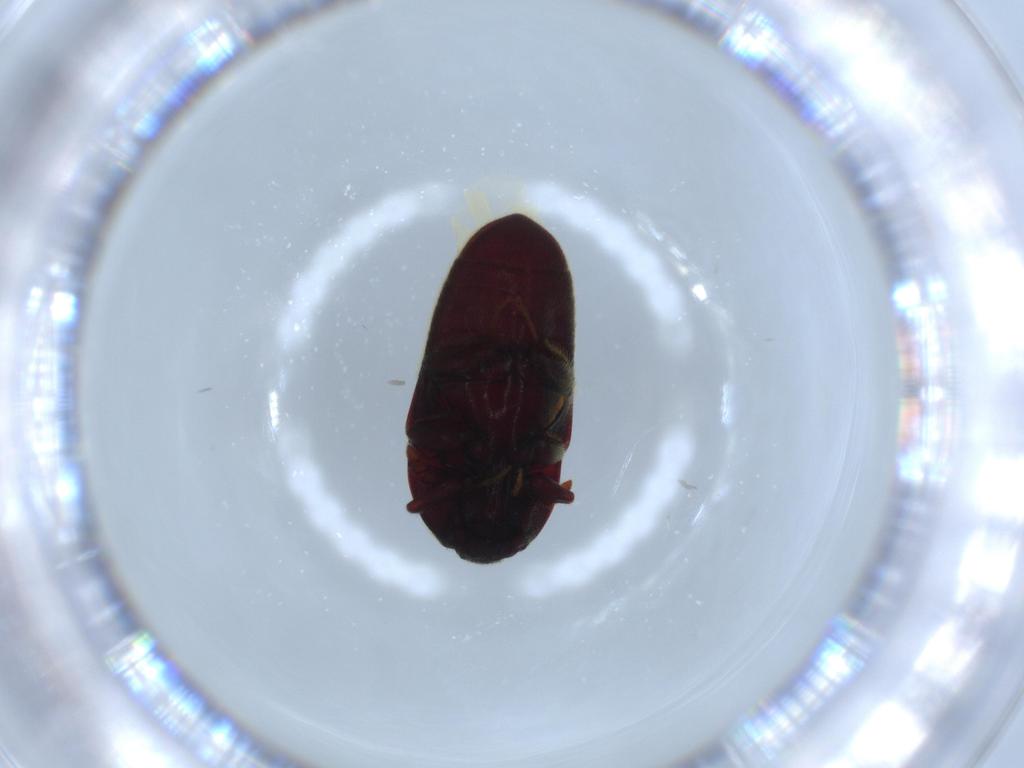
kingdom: Animalia
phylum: Arthropoda
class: Insecta
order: Coleoptera
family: Throscidae
